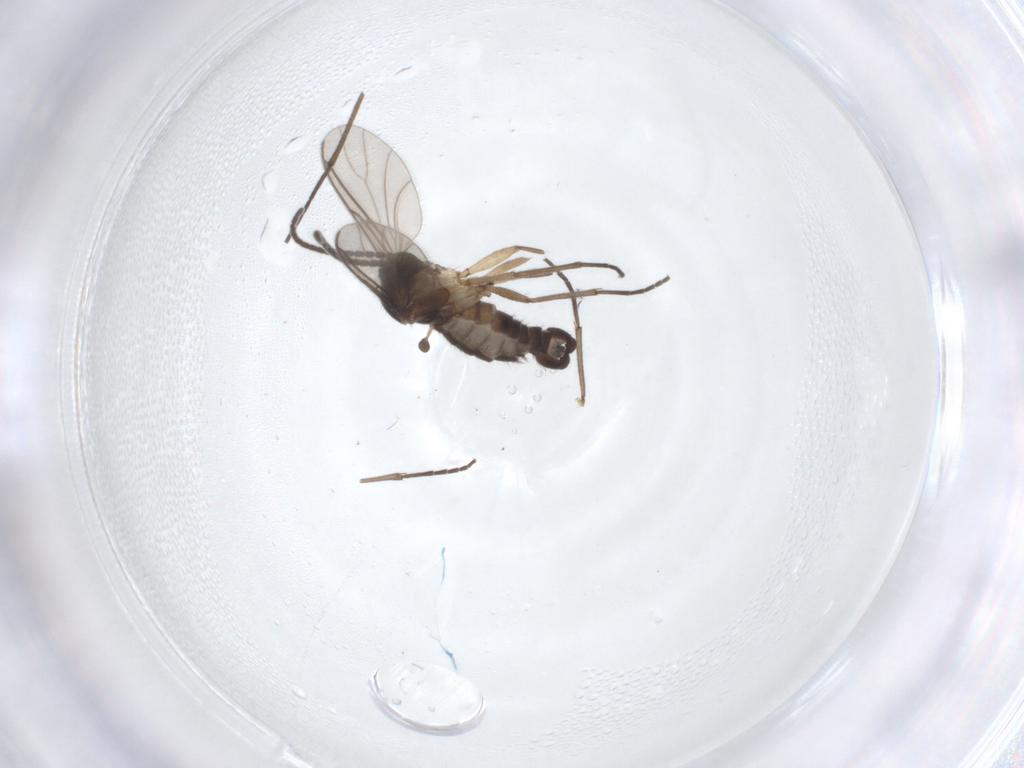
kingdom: Animalia
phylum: Arthropoda
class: Insecta
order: Diptera
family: Sciaridae
